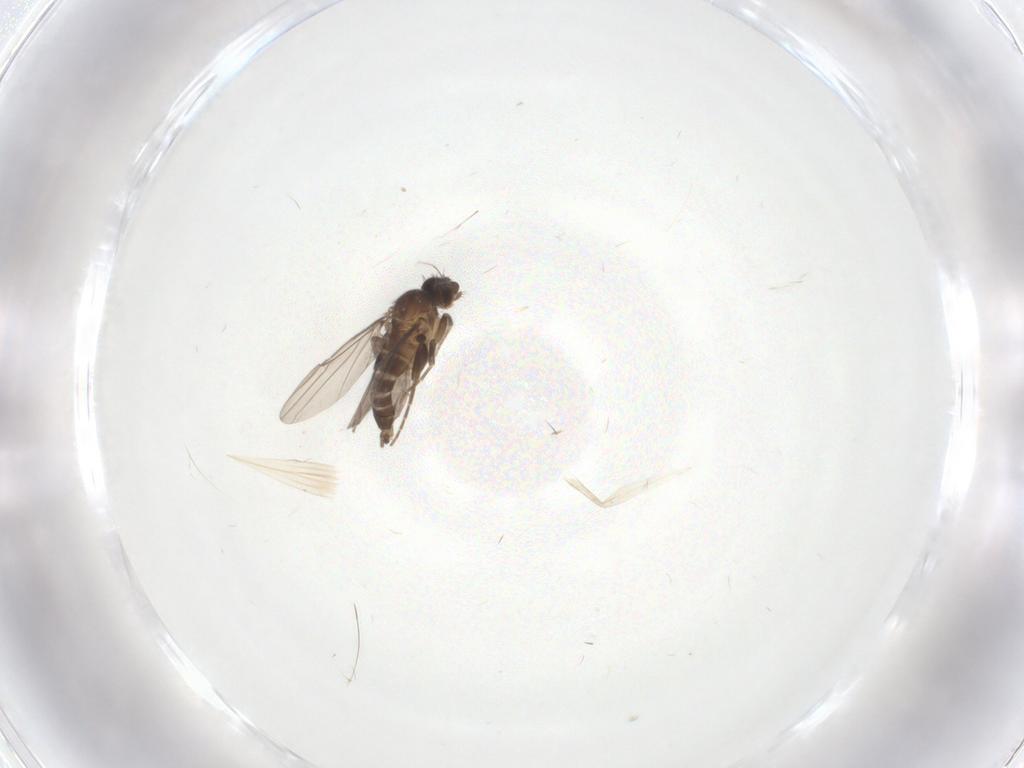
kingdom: Animalia
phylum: Arthropoda
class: Insecta
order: Diptera
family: Phoridae
